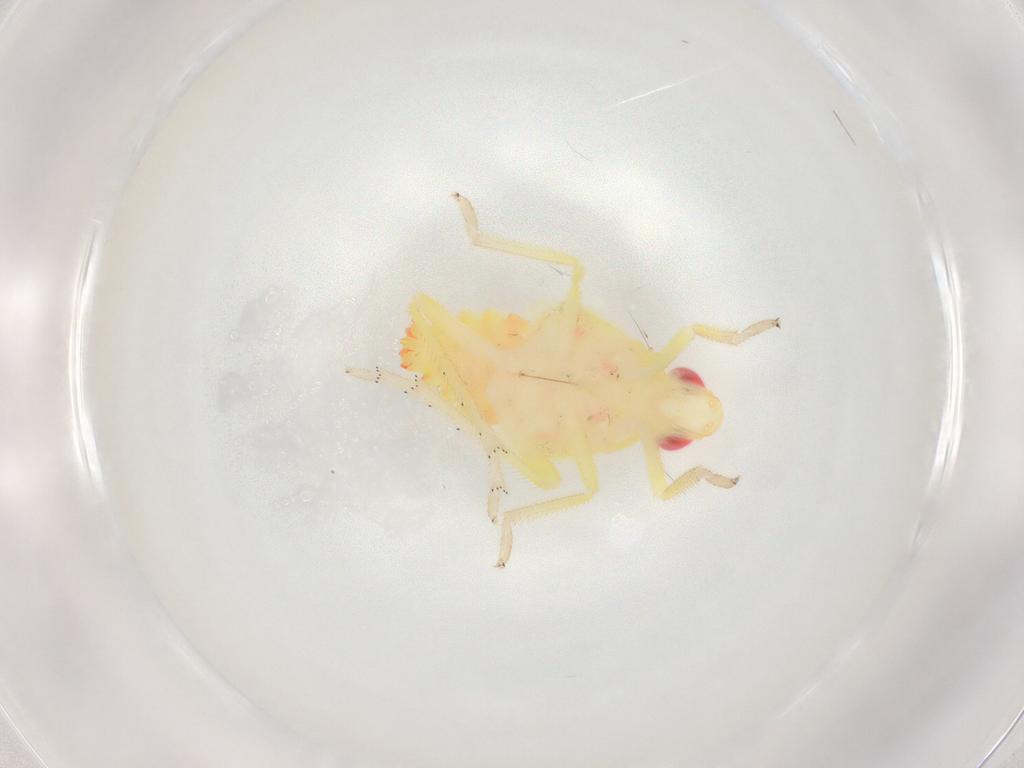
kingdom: Animalia
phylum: Arthropoda
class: Insecta
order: Hemiptera
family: Tropiduchidae
